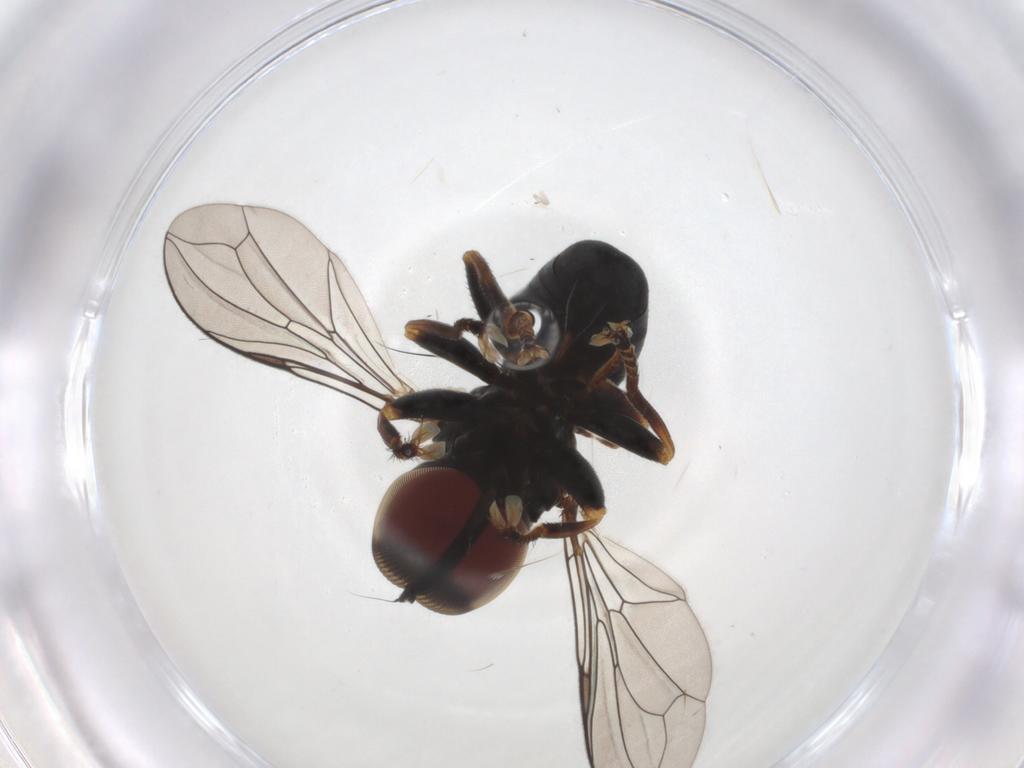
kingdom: Animalia
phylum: Arthropoda
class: Insecta
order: Diptera
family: Pipunculidae
